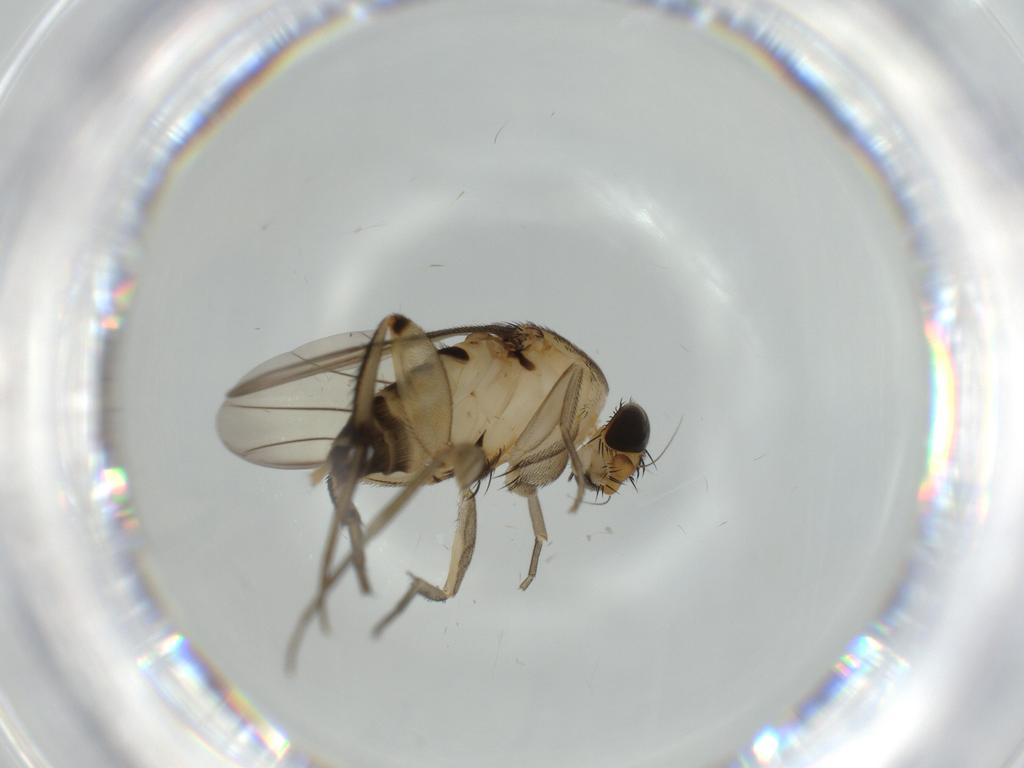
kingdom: Animalia
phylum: Arthropoda
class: Insecta
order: Diptera
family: Phoridae
